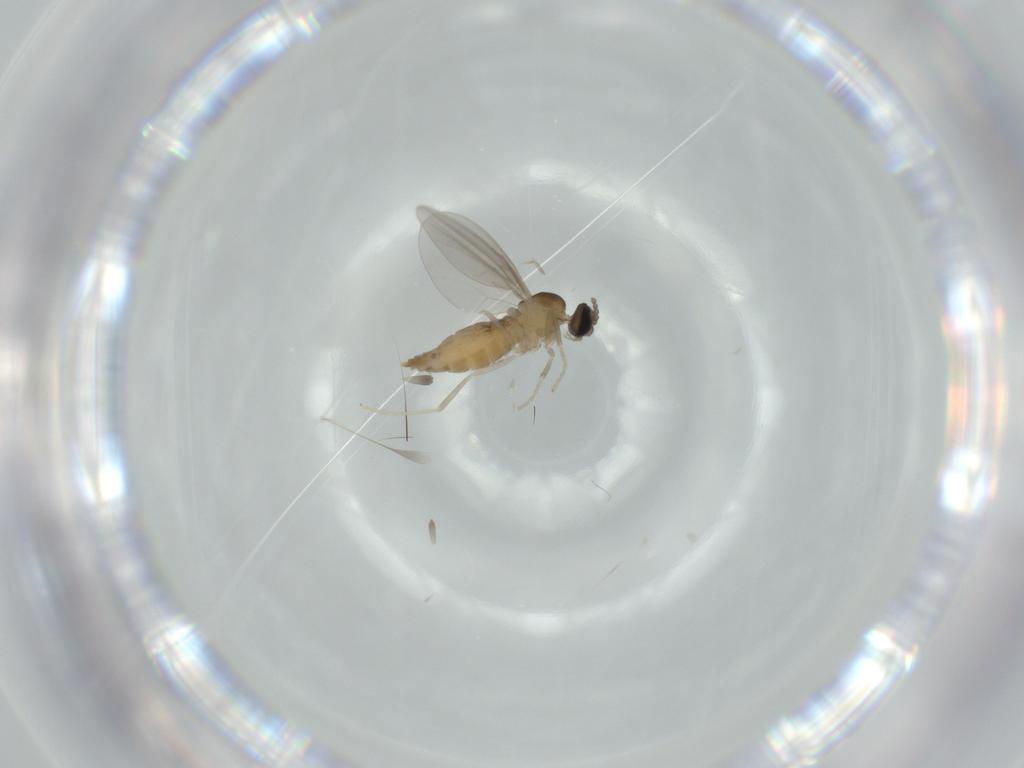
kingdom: Animalia
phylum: Arthropoda
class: Insecta
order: Diptera
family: Cecidomyiidae
